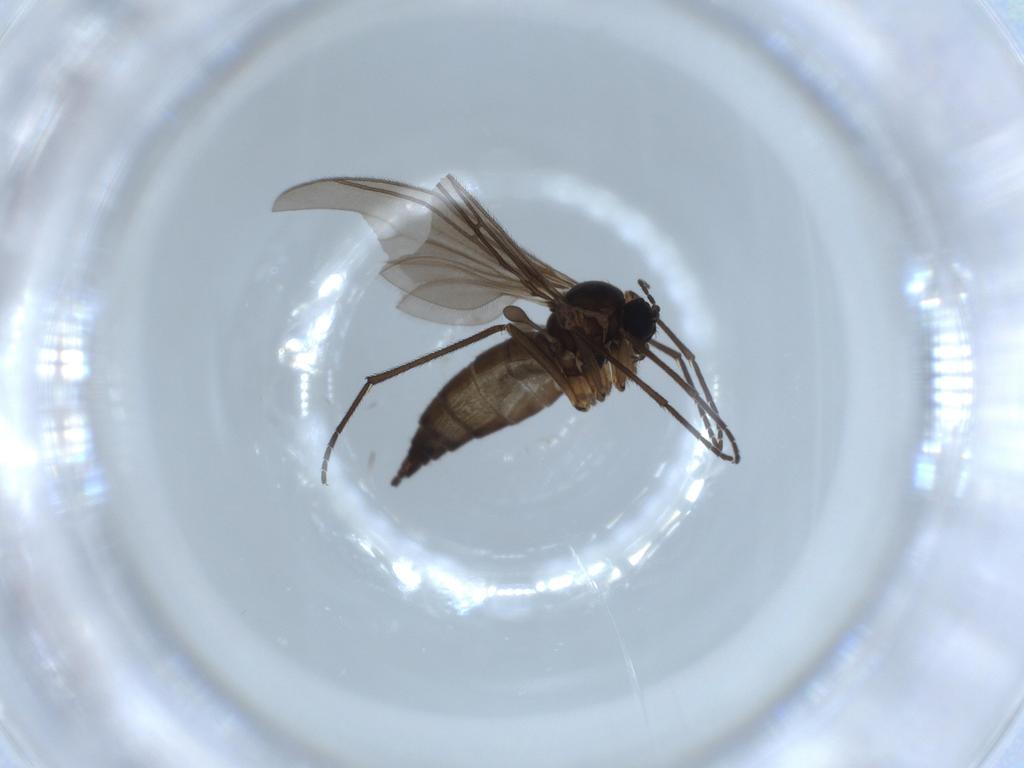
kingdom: Animalia
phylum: Arthropoda
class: Insecta
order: Diptera
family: Sciaridae
